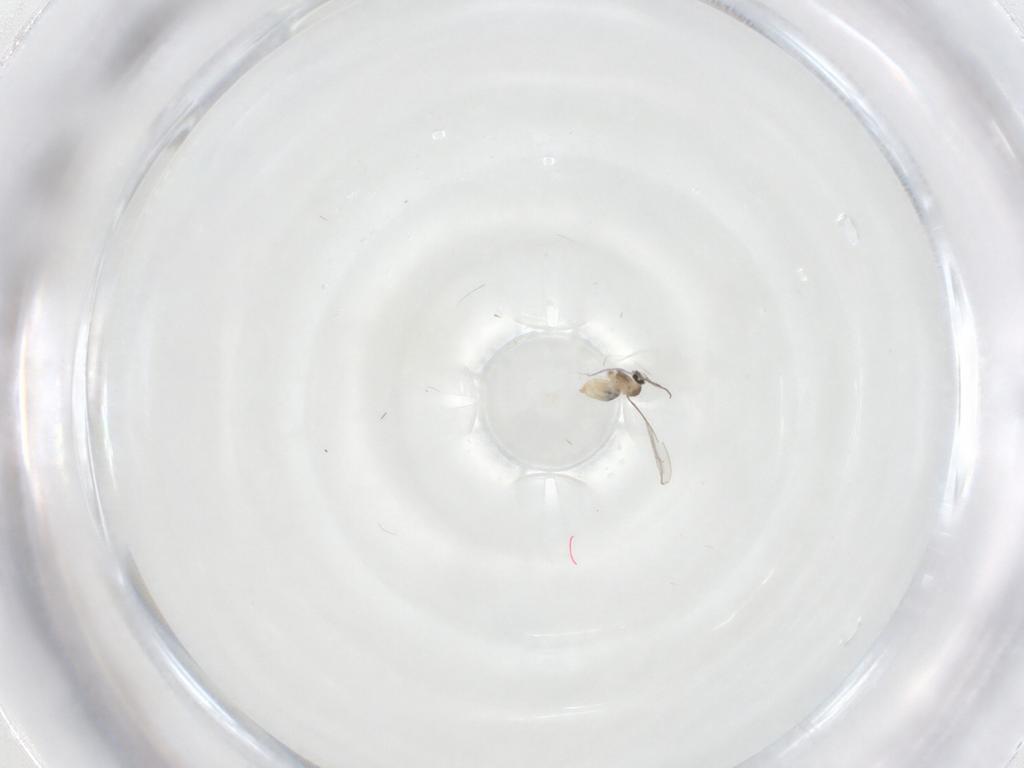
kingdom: Animalia
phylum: Arthropoda
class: Insecta
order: Diptera
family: Cecidomyiidae
